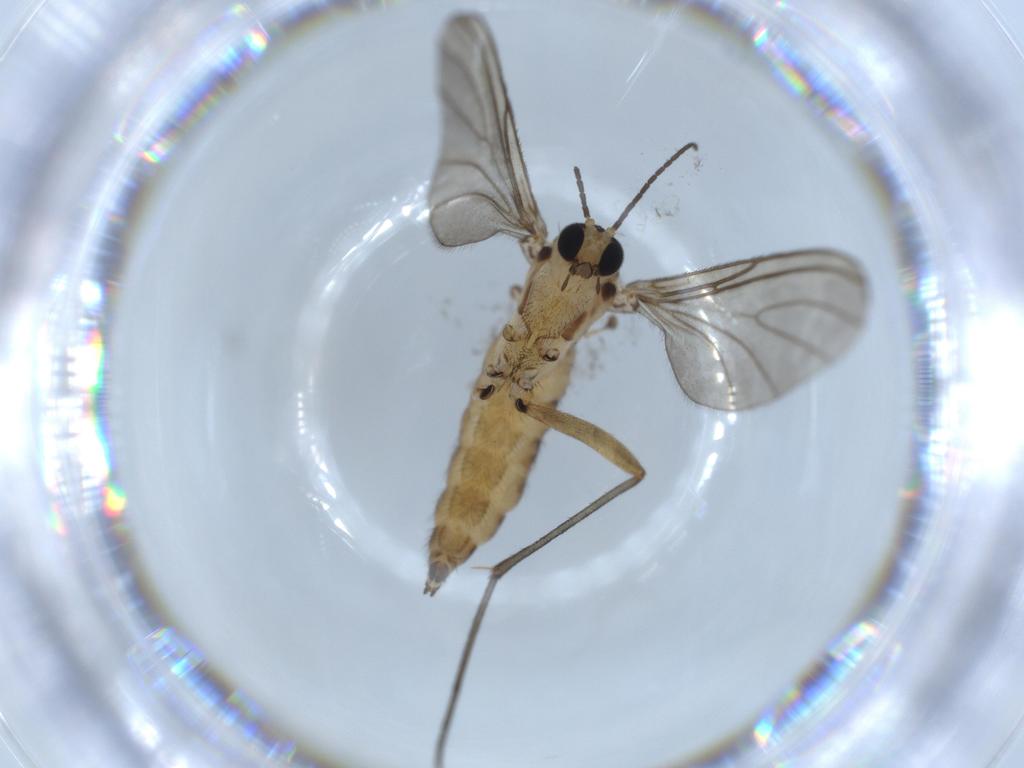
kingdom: Animalia
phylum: Arthropoda
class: Insecta
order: Diptera
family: Sciaridae
